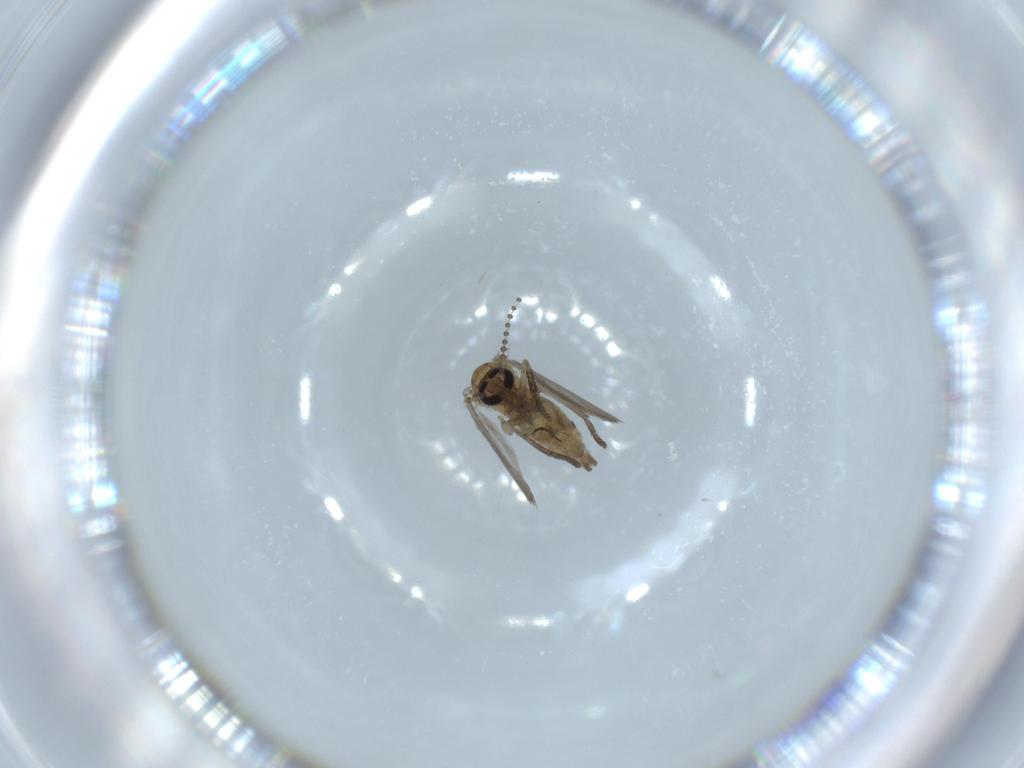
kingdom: Animalia
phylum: Arthropoda
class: Insecta
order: Diptera
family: Psychodidae
